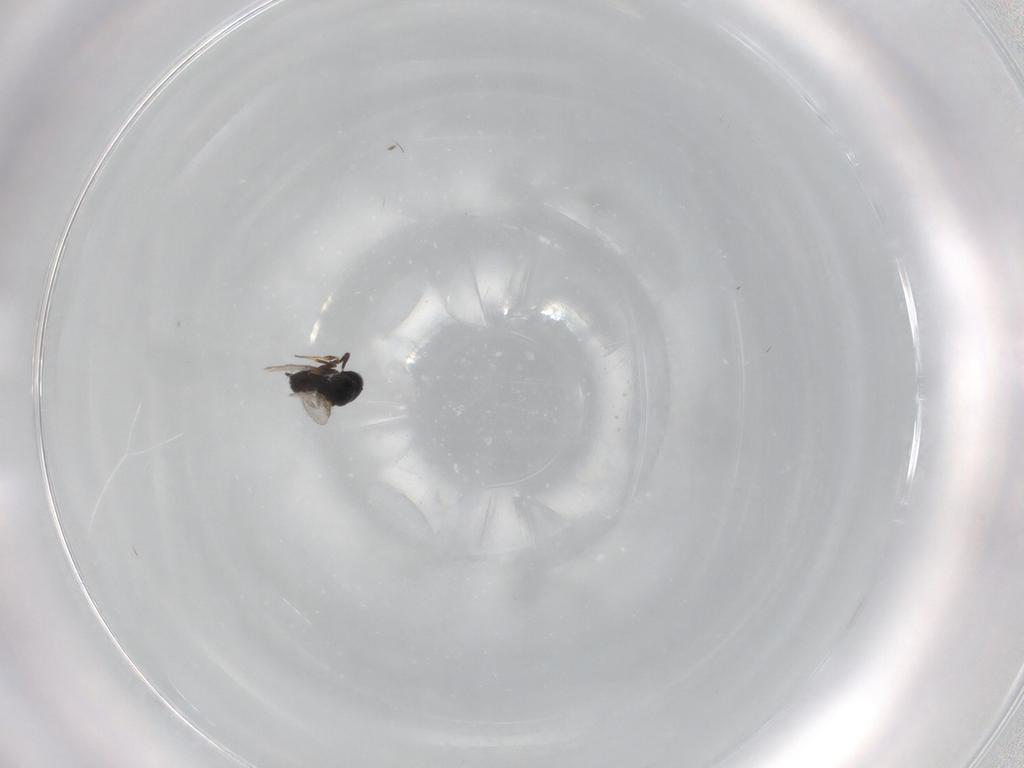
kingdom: Animalia
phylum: Arthropoda
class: Insecta
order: Hymenoptera
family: Scelionidae
